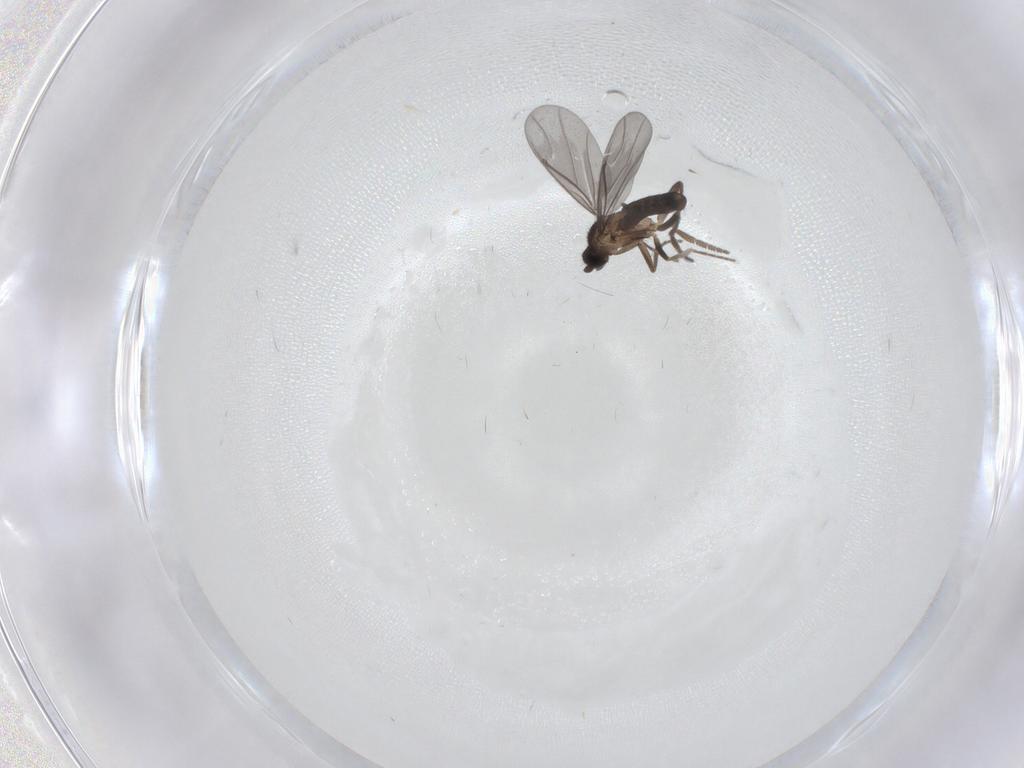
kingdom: Animalia
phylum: Arthropoda
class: Insecta
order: Diptera
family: Phoridae
